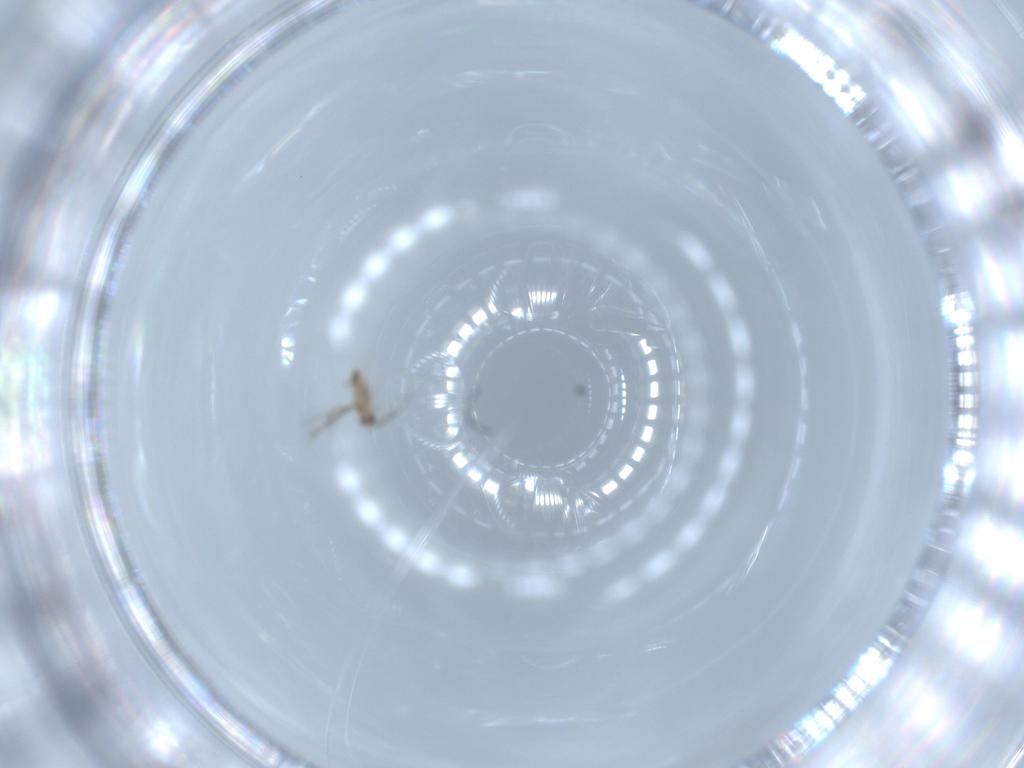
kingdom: Animalia
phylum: Arthropoda
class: Insecta
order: Hymenoptera
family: Mymaridae
